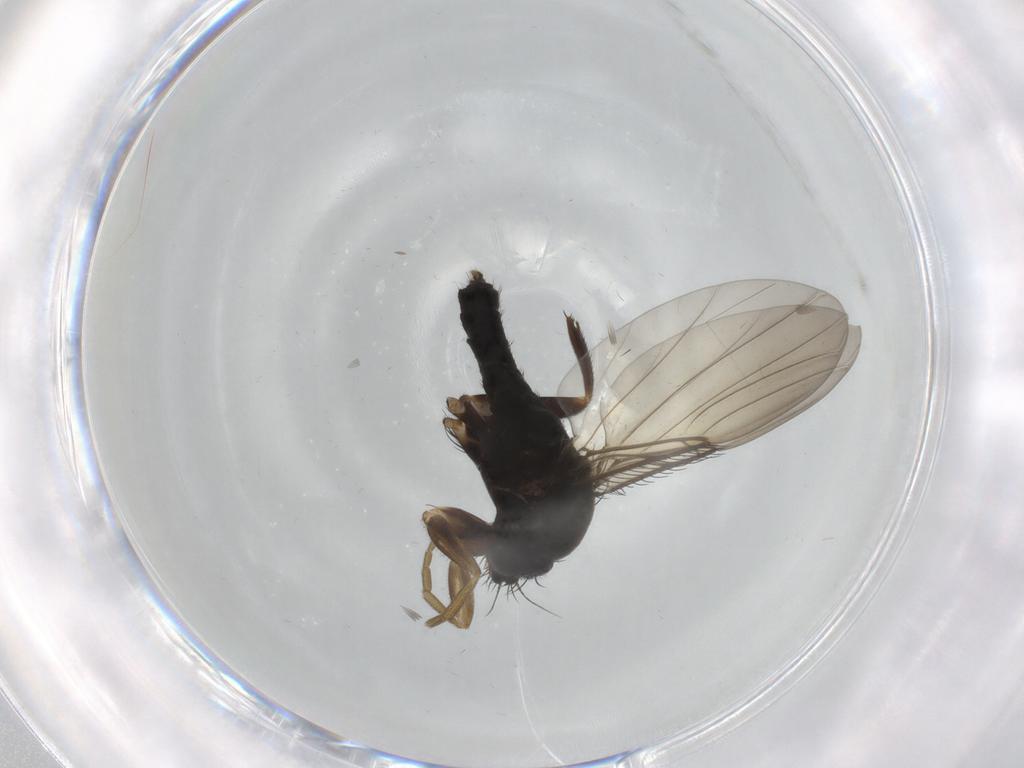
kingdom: Animalia
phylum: Arthropoda
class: Insecta
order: Diptera
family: Phoridae
